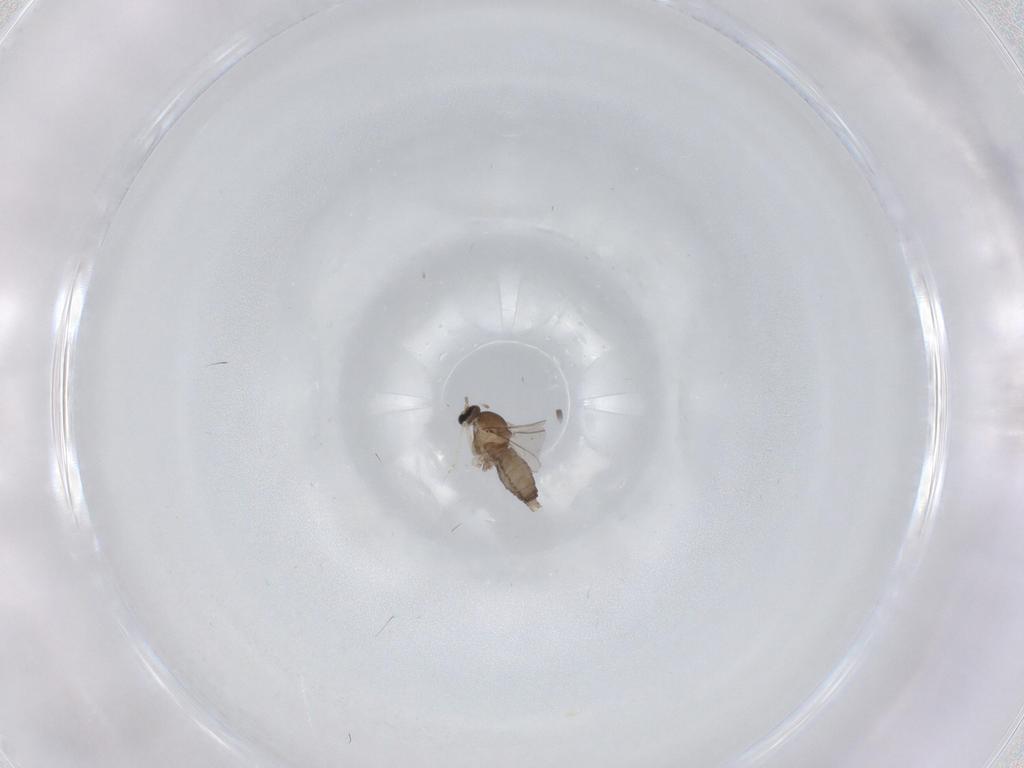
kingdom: Animalia
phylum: Arthropoda
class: Insecta
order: Diptera
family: Cecidomyiidae
